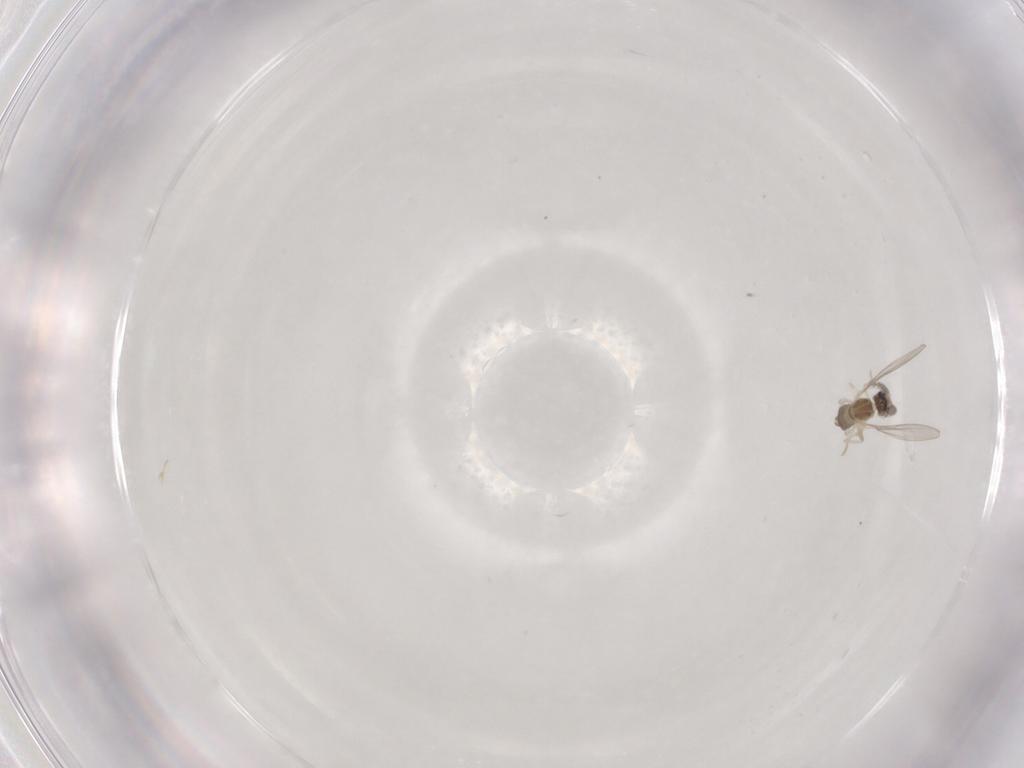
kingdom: Animalia
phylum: Arthropoda
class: Insecta
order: Diptera
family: Cecidomyiidae
